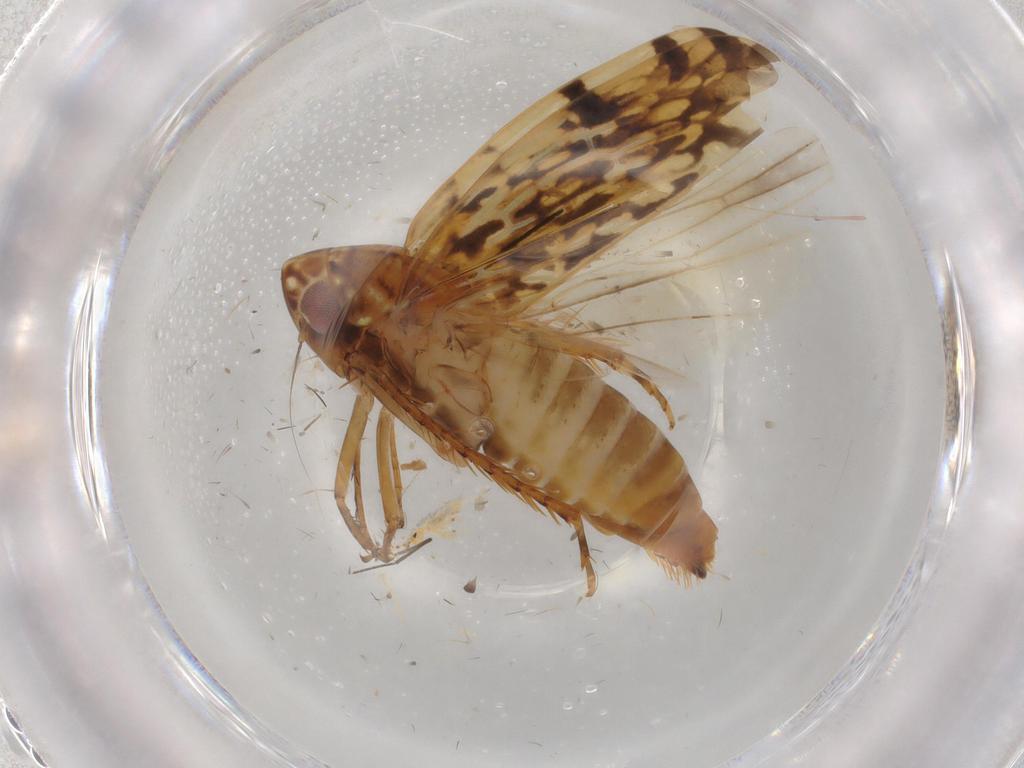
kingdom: Animalia
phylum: Arthropoda
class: Insecta
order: Hemiptera
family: Cicadellidae
